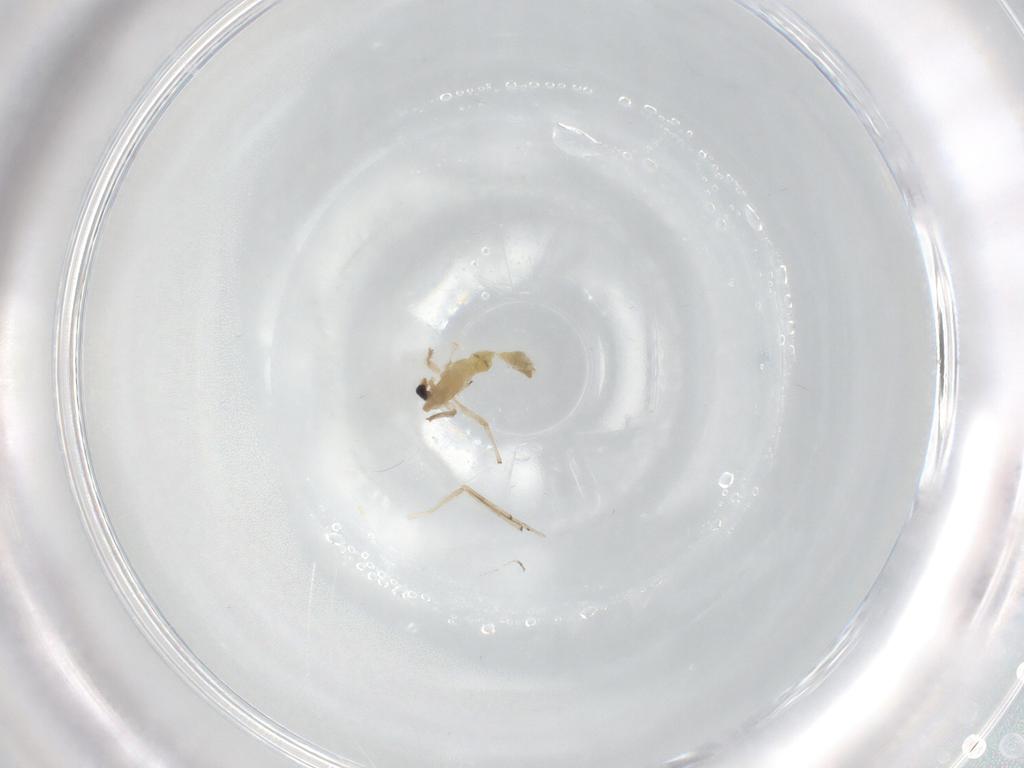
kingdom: Animalia
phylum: Arthropoda
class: Insecta
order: Diptera
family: Chironomidae
